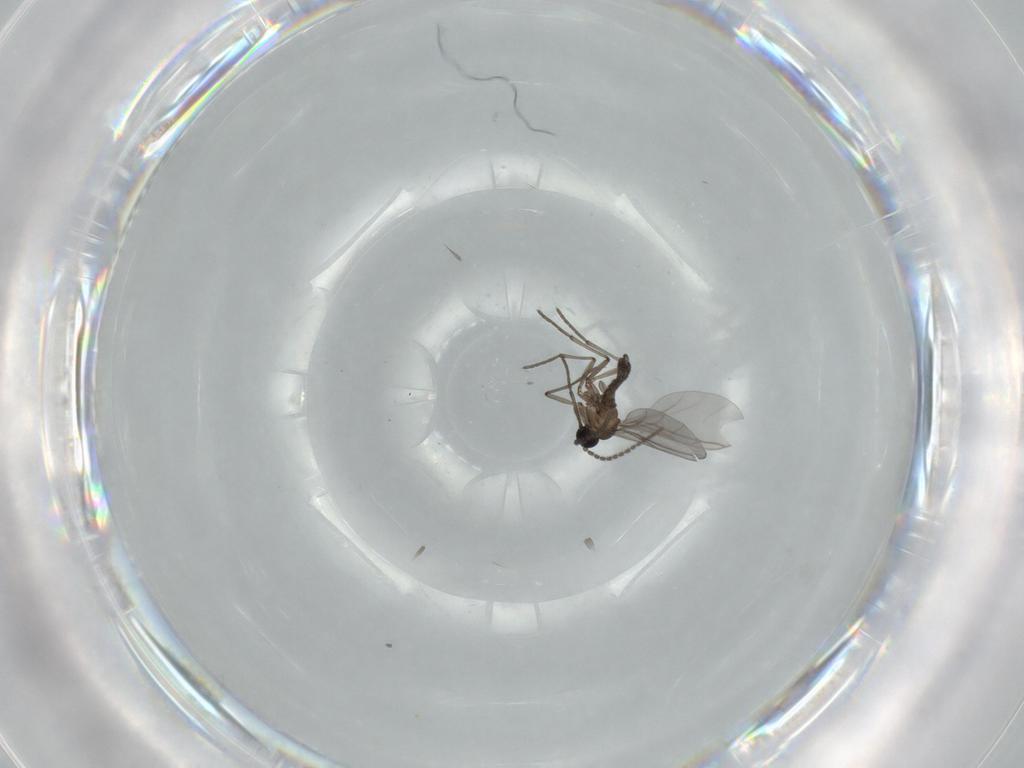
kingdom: Animalia
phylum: Arthropoda
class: Insecta
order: Diptera
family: Sciaridae
